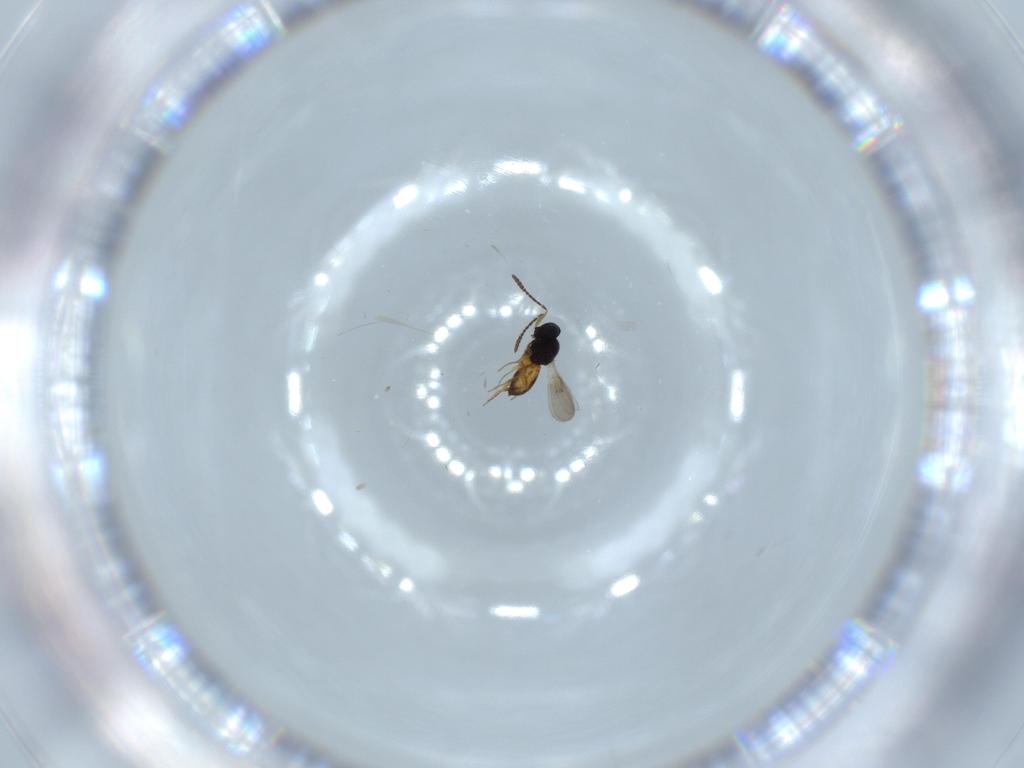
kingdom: Animalia
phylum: Arthropoda
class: Insecta
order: Hymenoptera
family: Scelionidae
